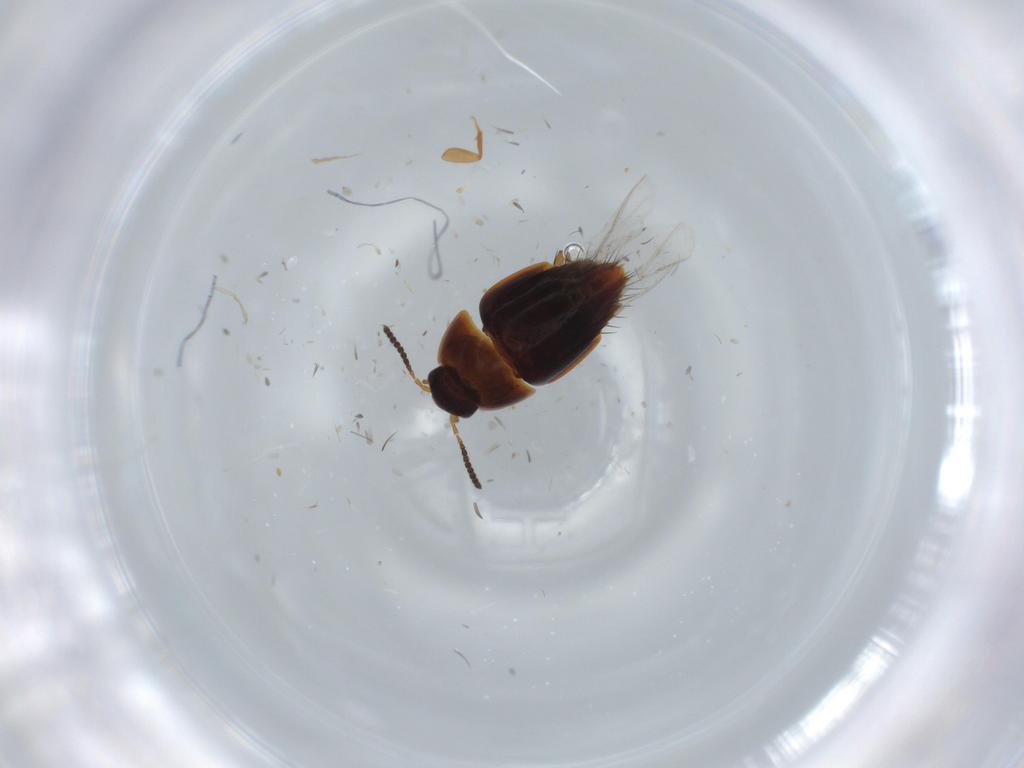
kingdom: Animalia
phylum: Arthropoda
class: Insecta
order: Coleoptera
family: Staphylinidae
